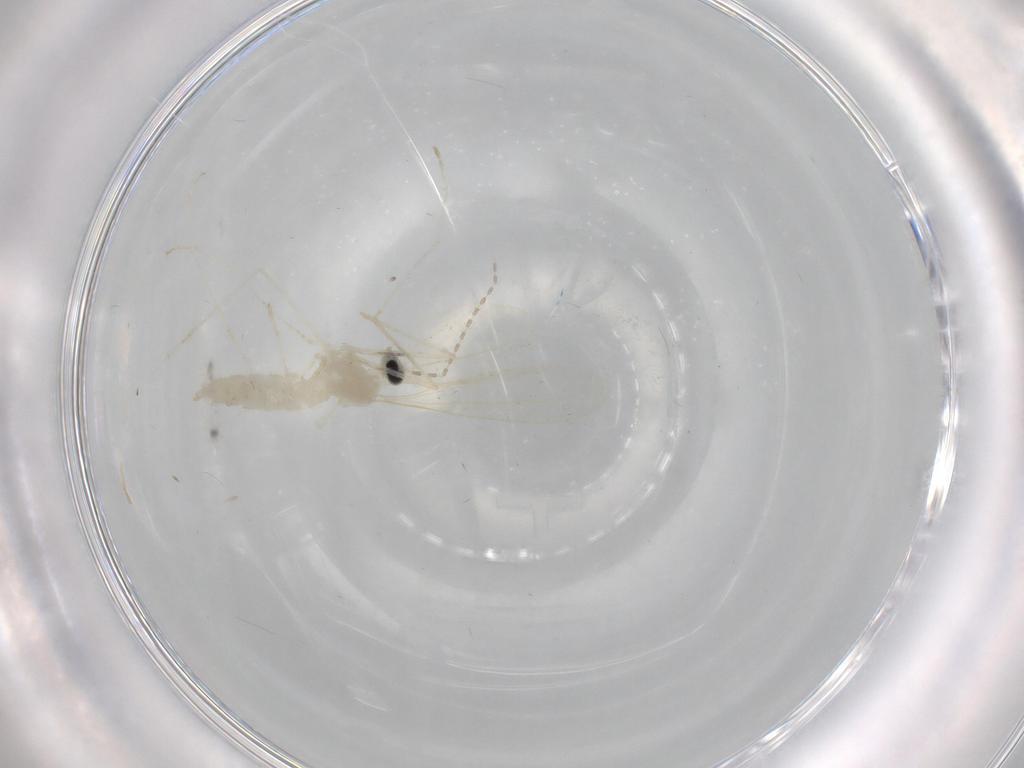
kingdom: Animalia
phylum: Arthropoda
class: Insecta
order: Diptera
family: Cecidomyiidae
